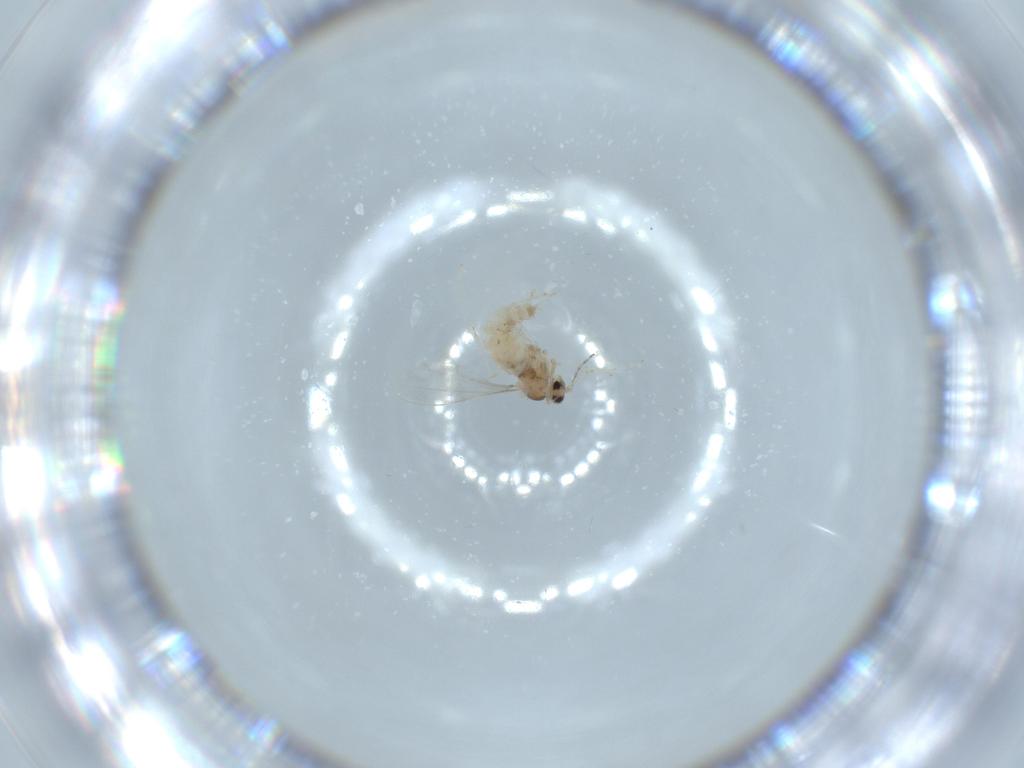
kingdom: Animalia
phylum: Arthropoda
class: Insecta
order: Diptera
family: Cecidomyiidae
